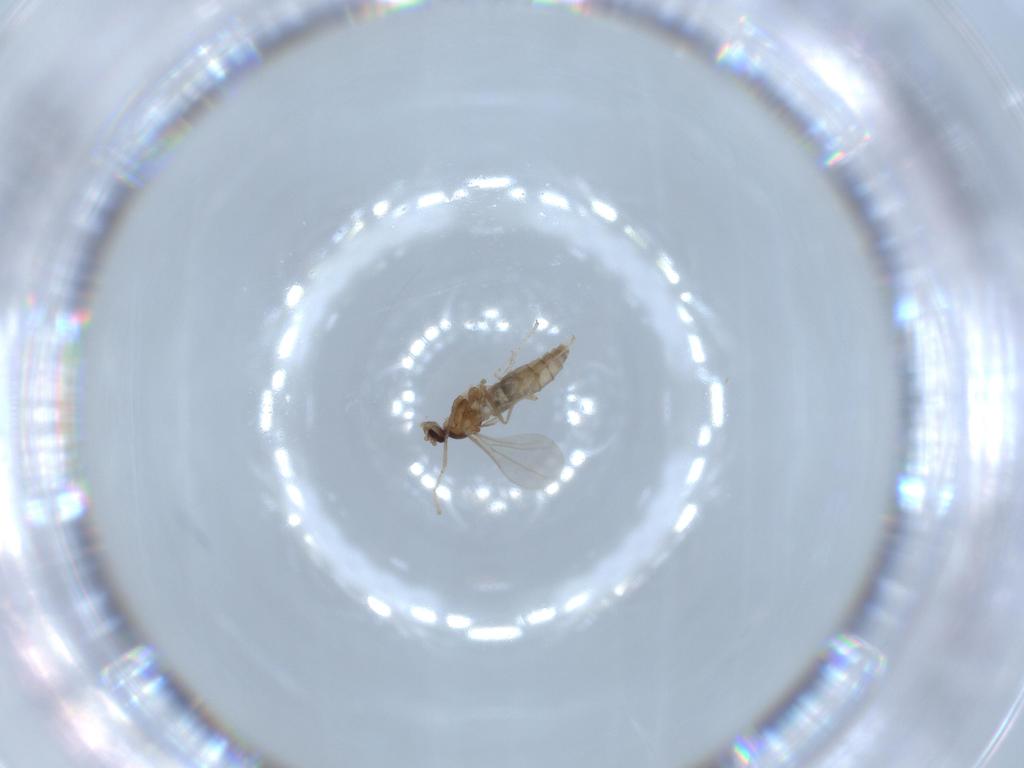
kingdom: Animalia
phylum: Arthropoda
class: Insecta
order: Diptera
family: Cecidomyiidae
